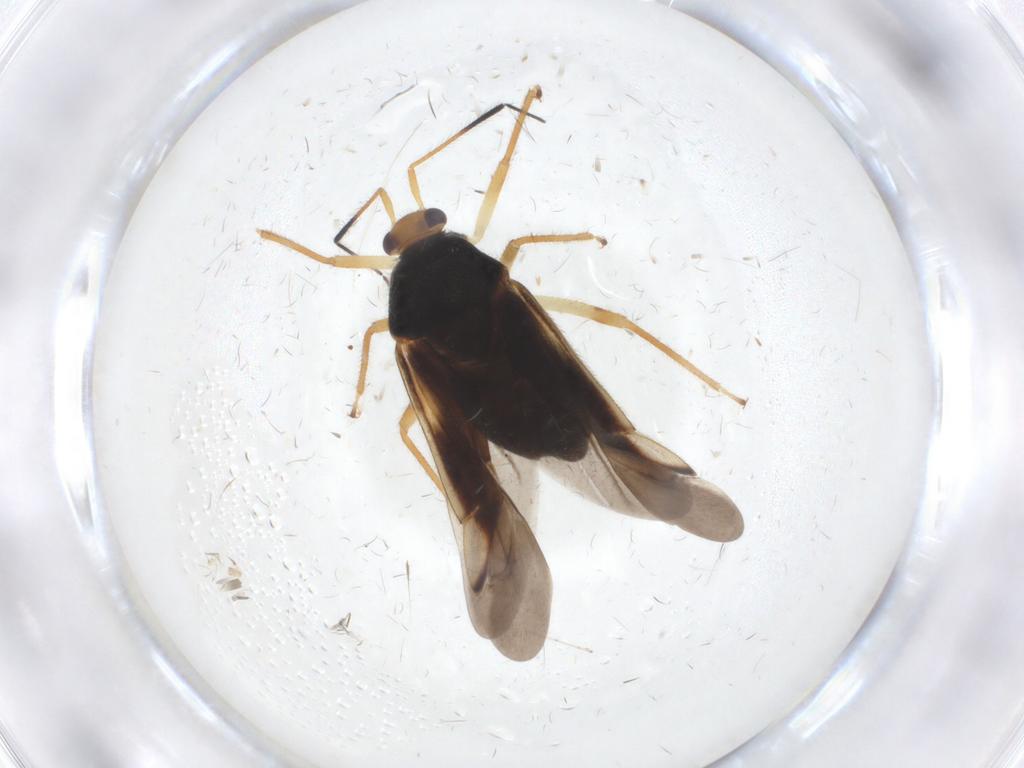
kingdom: Animalia
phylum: Arthropoda
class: Insecta
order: Hemiptera
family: Miridae
